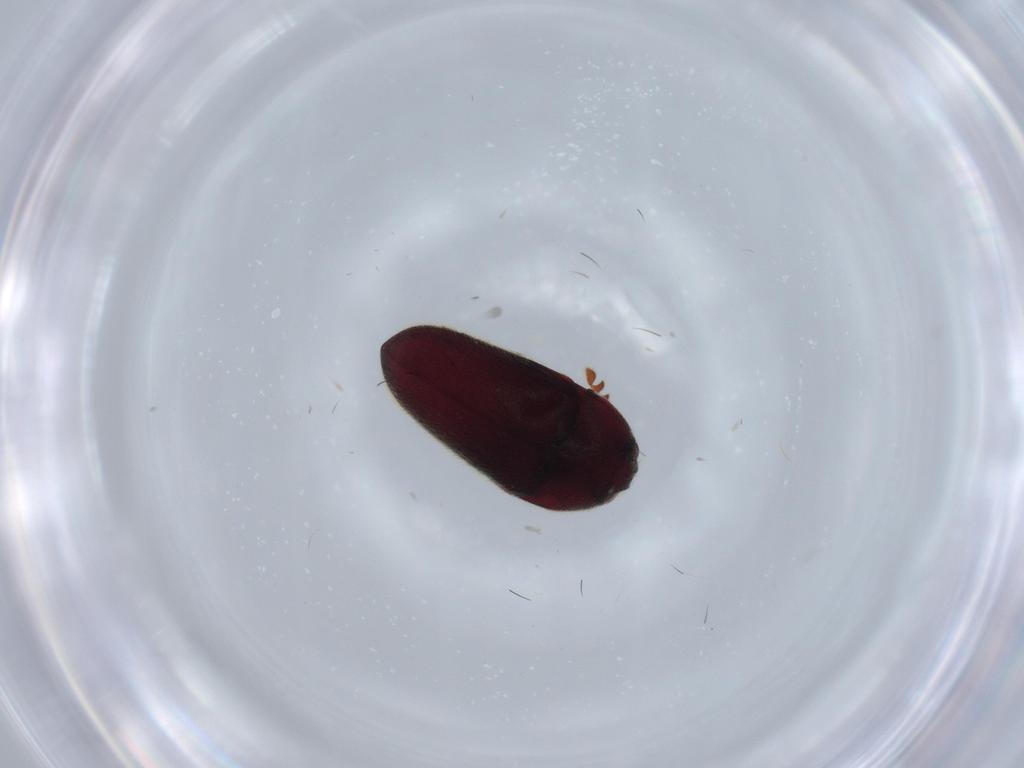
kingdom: Animalia
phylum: Arthropoda
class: Insecta
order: Coleoptera
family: Throscidae
